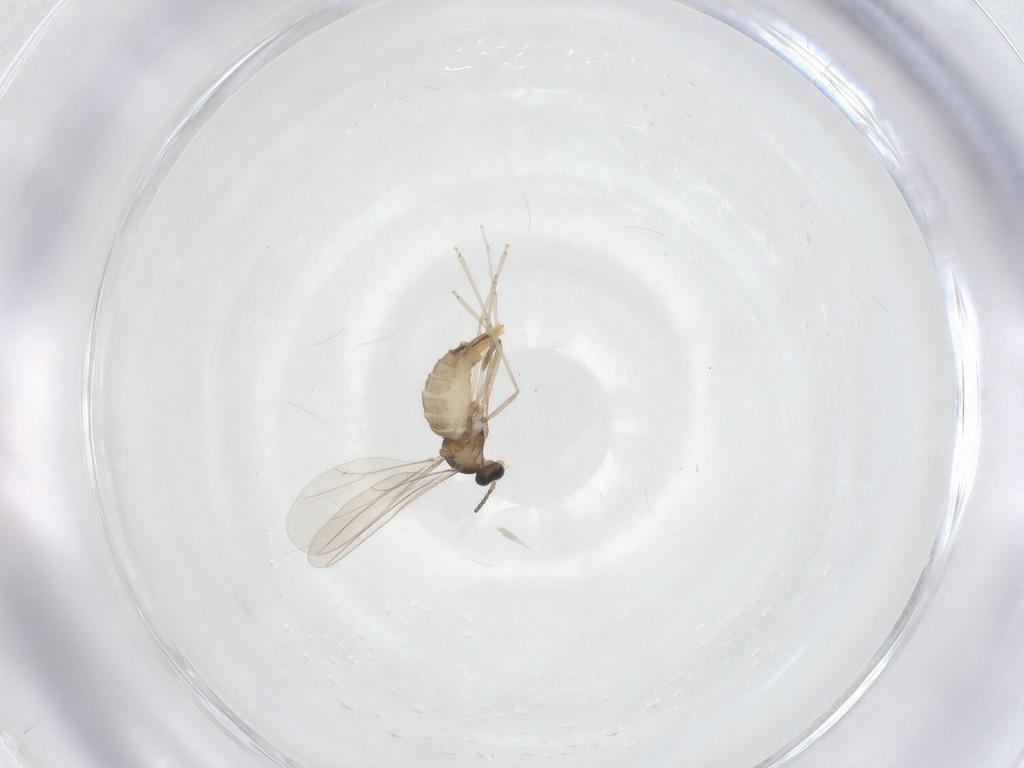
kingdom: Animalia
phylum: Arthropoda
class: Insecta
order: Diptera
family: Cecidomyiidae
